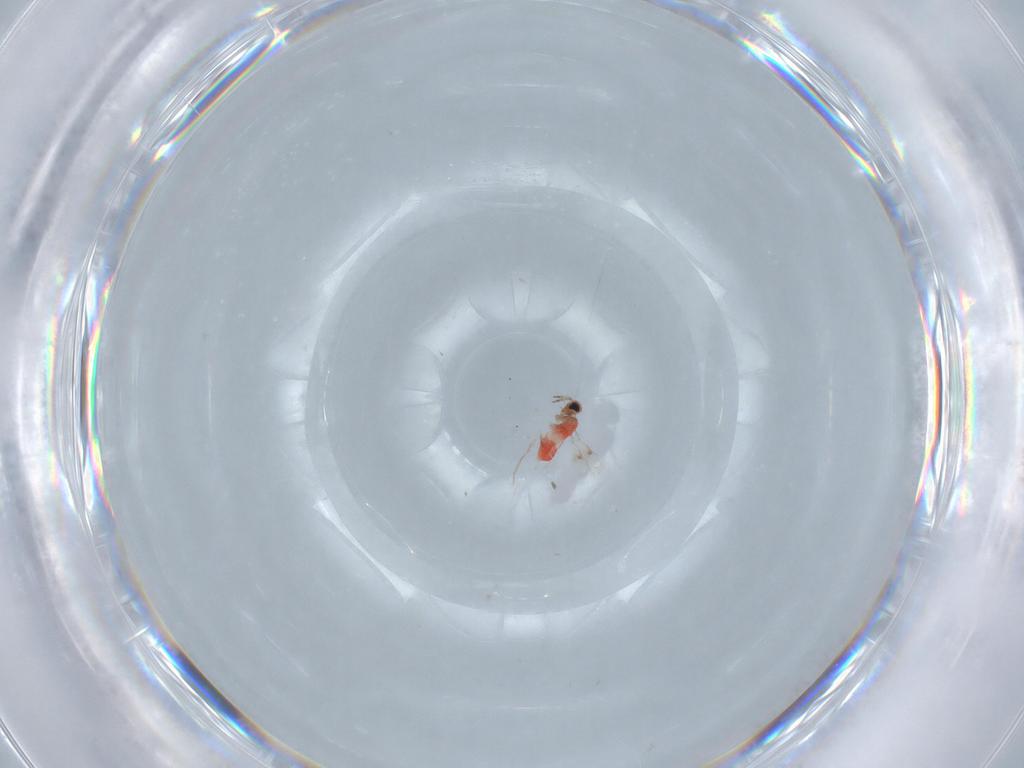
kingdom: Animalia
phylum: Arthropoda
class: Insecta
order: Hymenoptera
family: Trichogrammatidae
